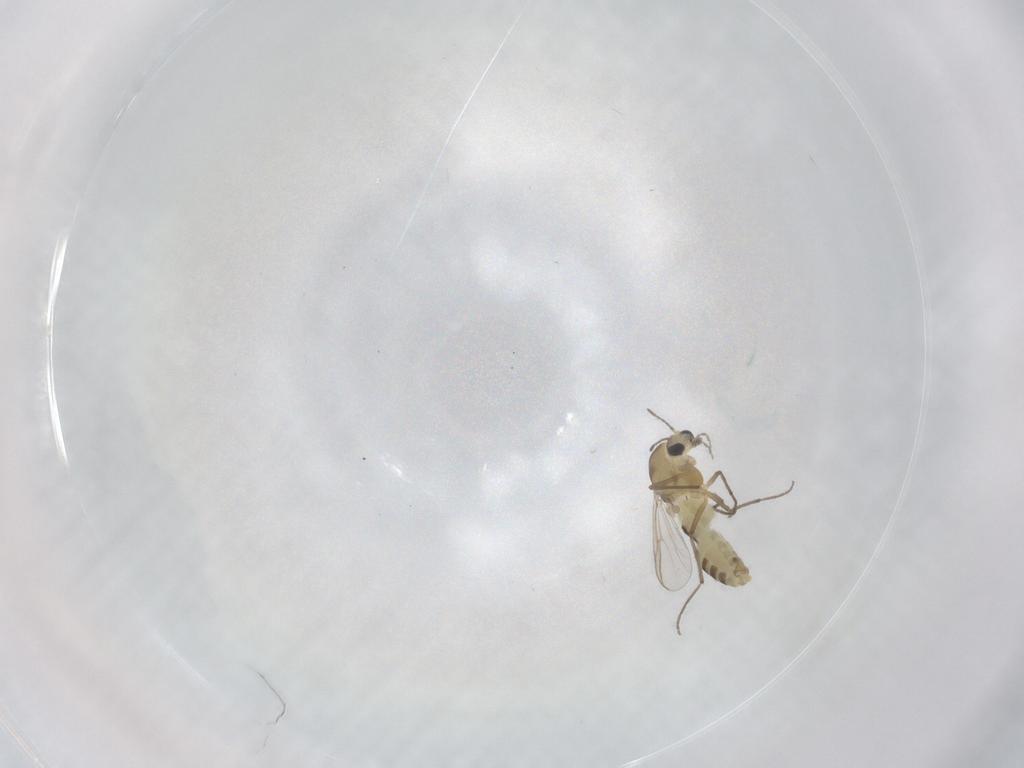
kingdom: Animalia
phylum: Arthropoda
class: Insecta
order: Diptera
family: Chironomidae
